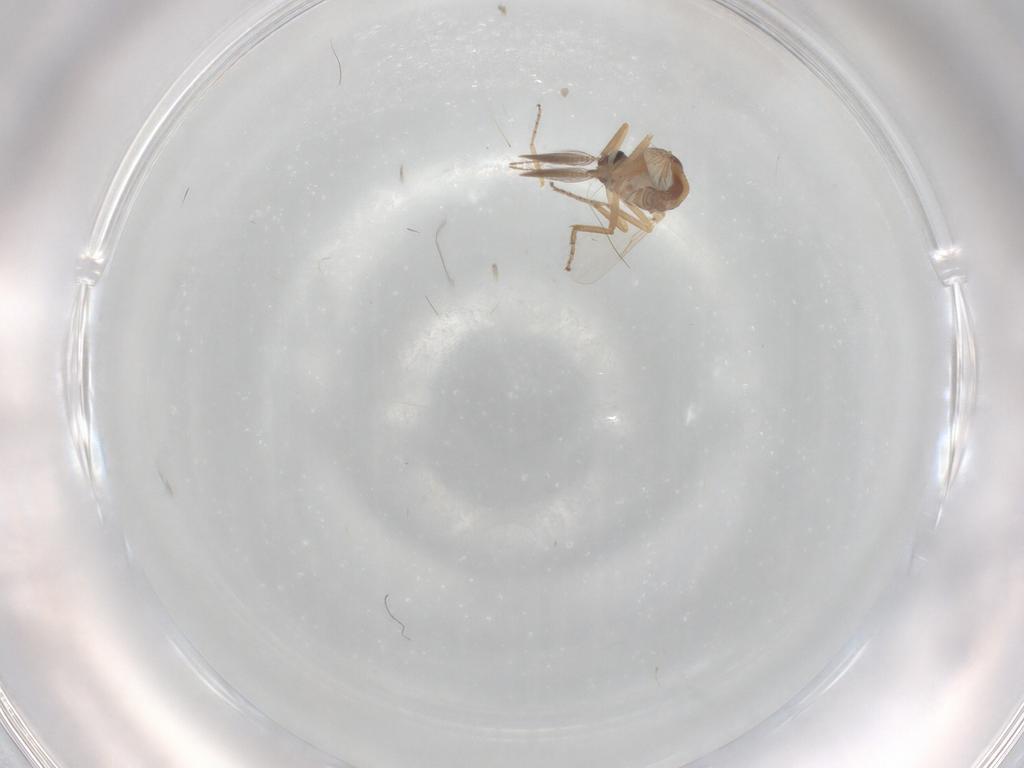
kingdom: Animalia
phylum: Arthropoda
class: Insecta
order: Diptera
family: Ceratopogonidae
